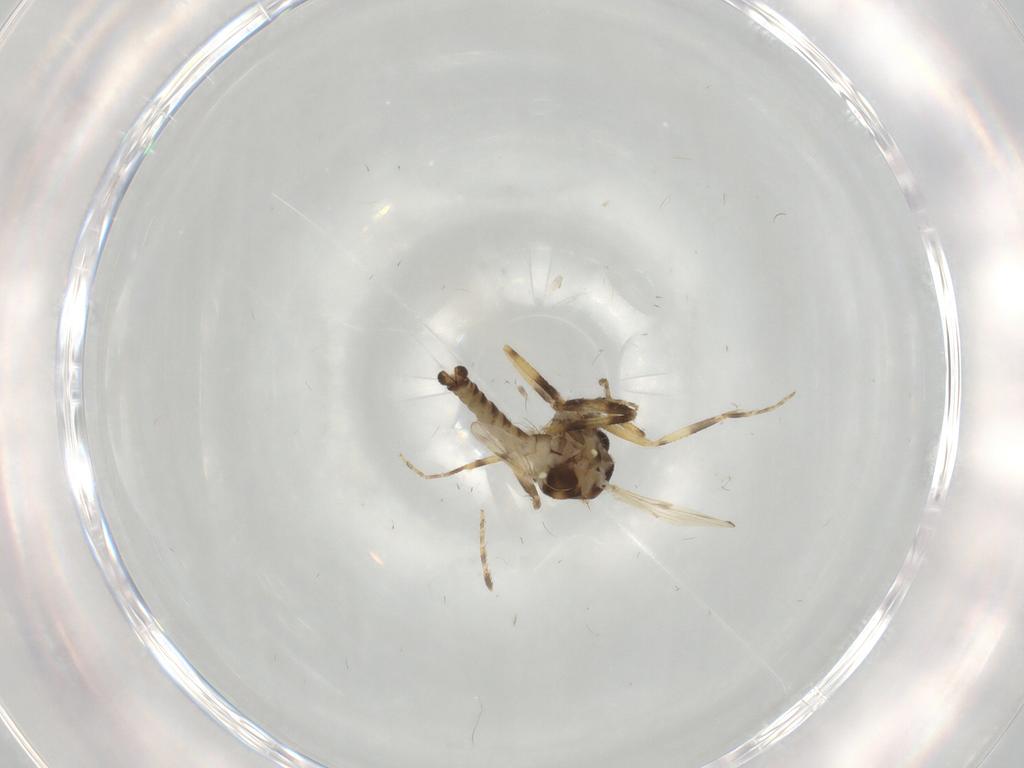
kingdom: Animalia
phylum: Arthropoda
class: Insecta
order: Diptera
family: Ceratopogonidae
